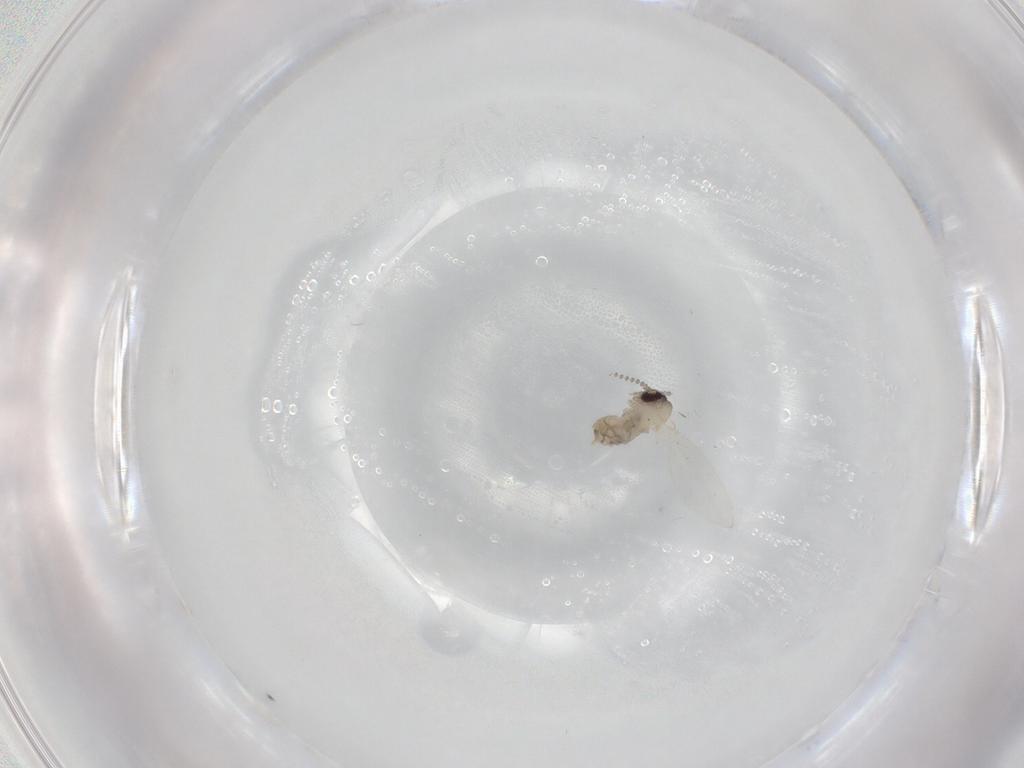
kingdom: Animalia
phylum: Arthropoda
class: Insecta
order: Diptera
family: Psychodidae
